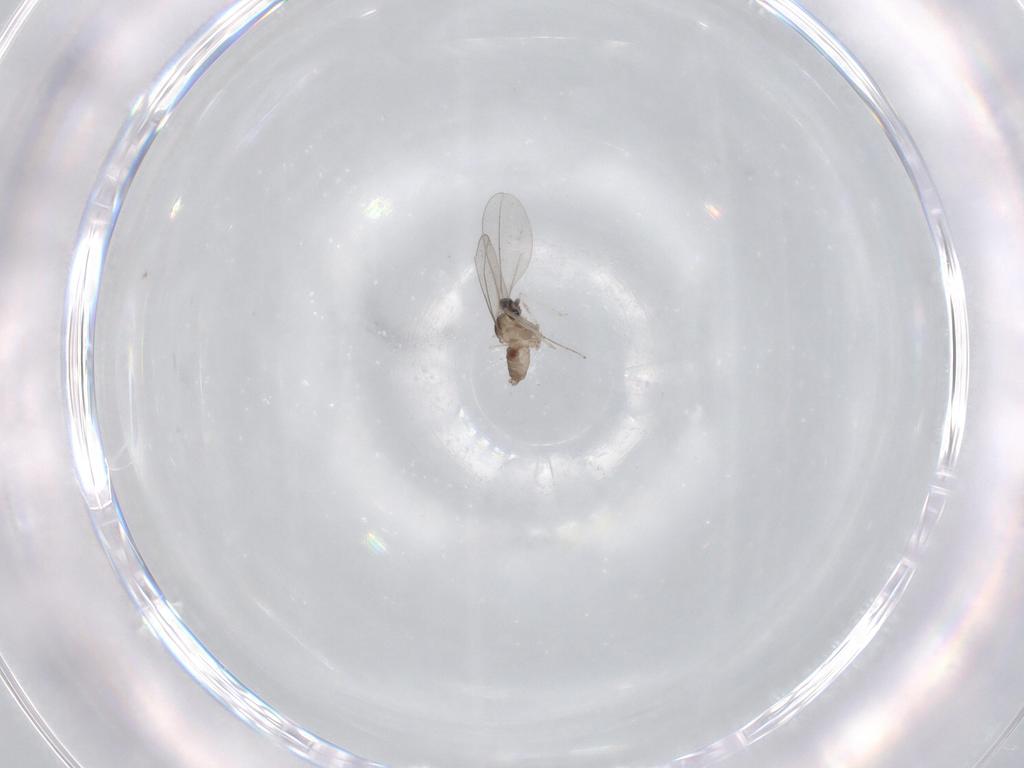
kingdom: Animalia
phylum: Arthropoda
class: Insecta
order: Diptera
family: Cecidomyiidae
